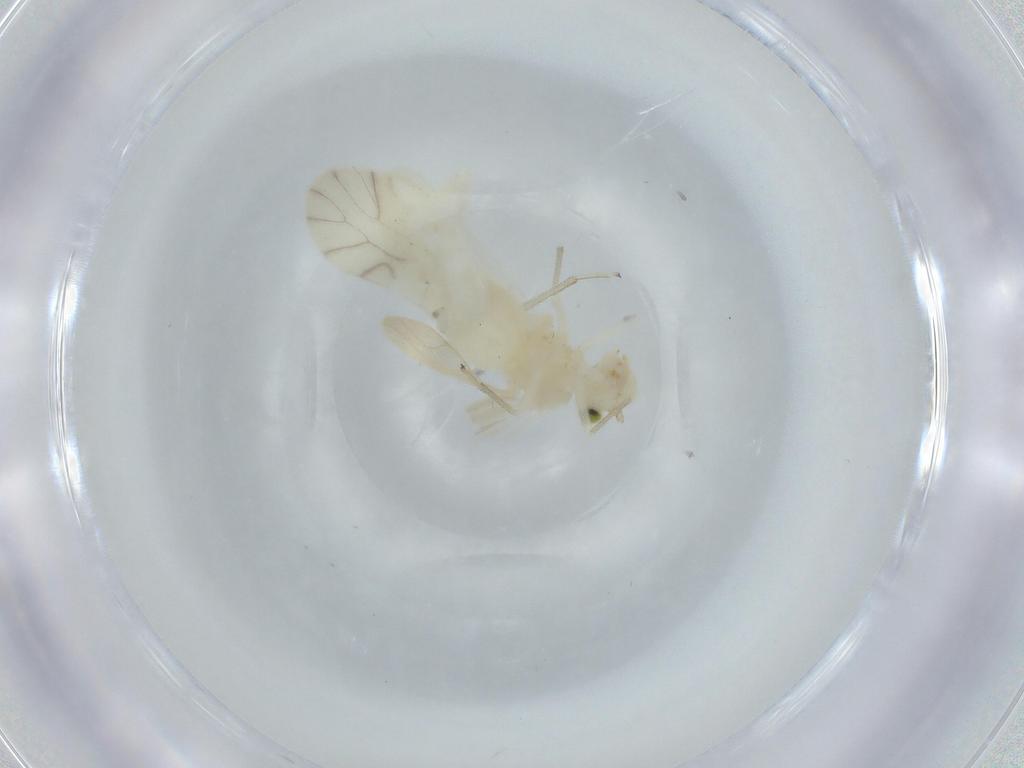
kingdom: Animalia
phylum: Arthropoda
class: Insecta
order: Psocodea
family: Caeciliusidae
